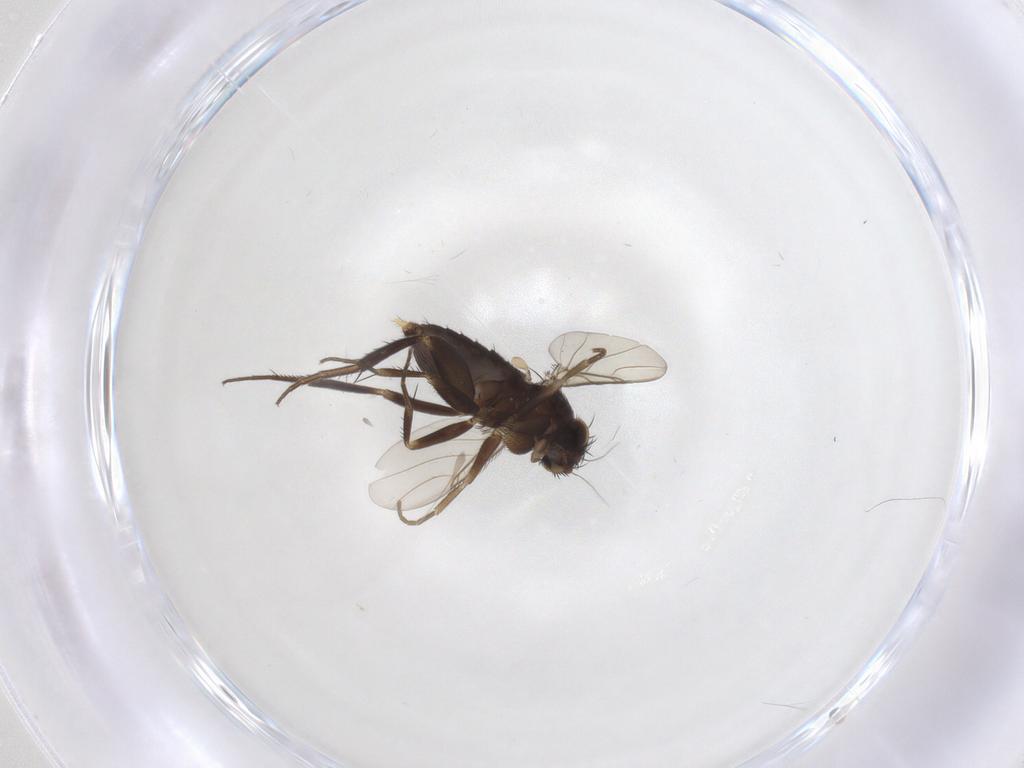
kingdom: Animalia
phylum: Arthropoda
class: Insecta
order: Diptera
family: Phoridae
